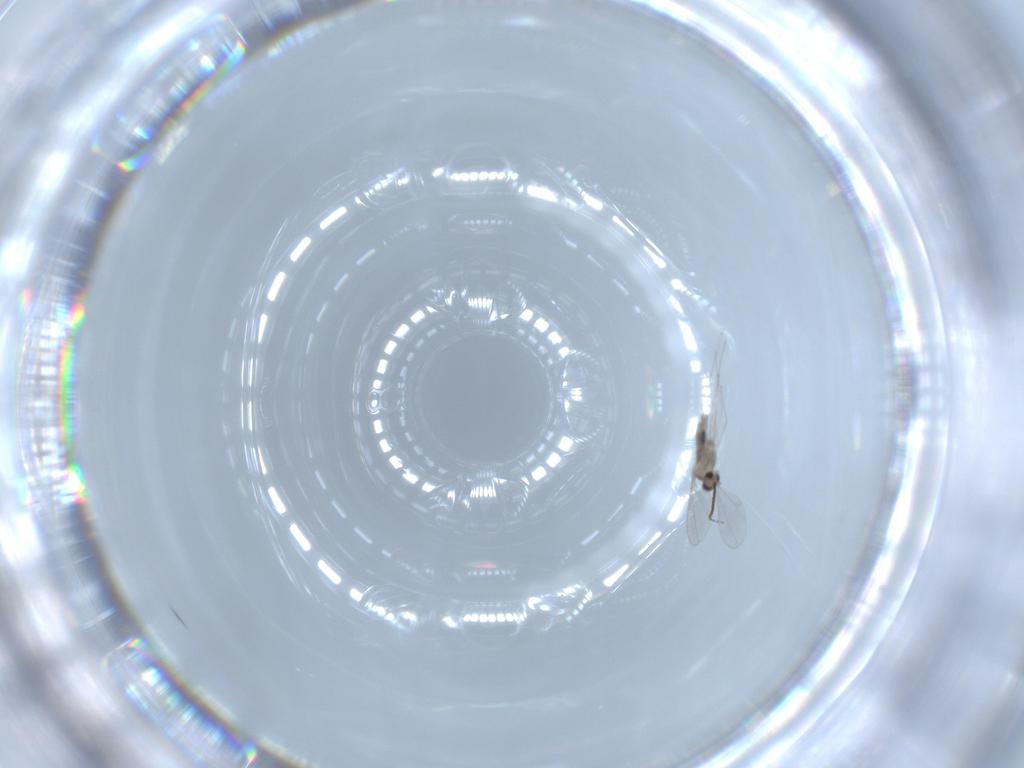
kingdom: Animalia
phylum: Arthropoda
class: Insecta
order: Diptera
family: Cecidomyiidae
